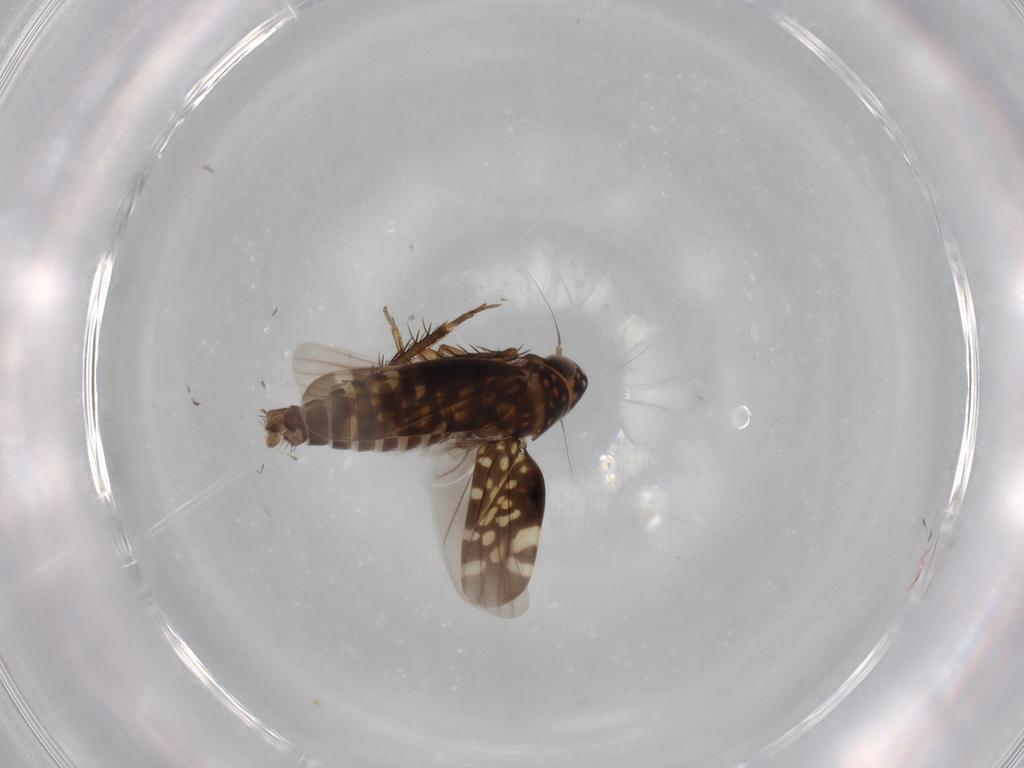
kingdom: Animalia
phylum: Arthropoda
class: Insecta
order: Hemiptera
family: Cicadellidae
